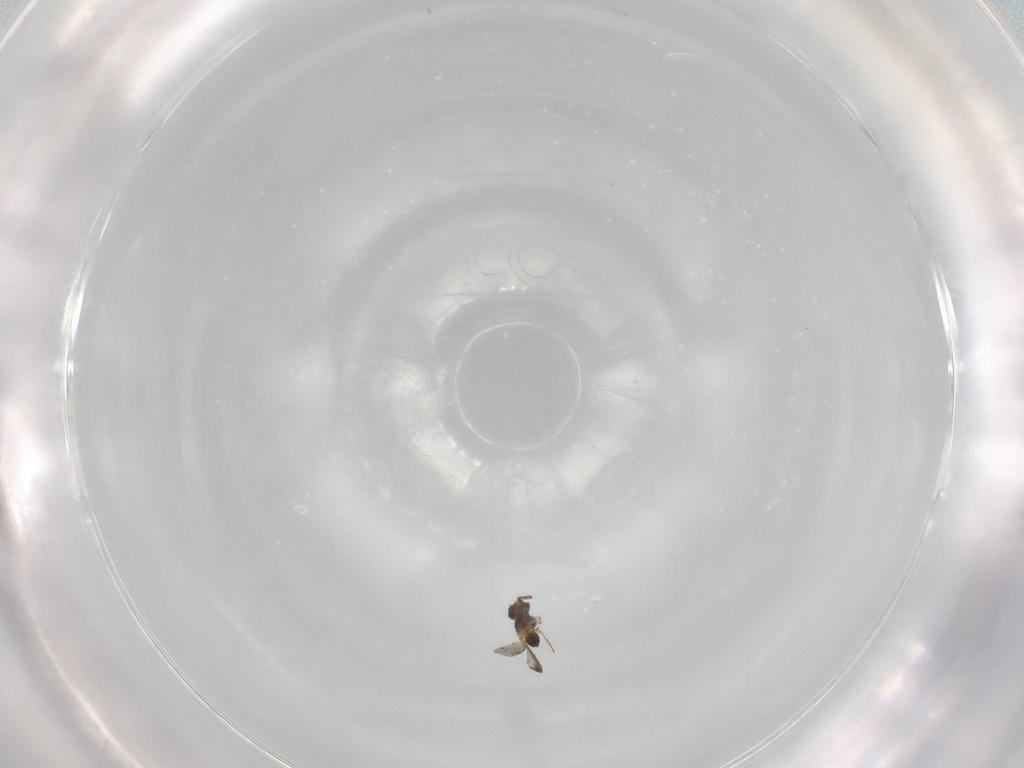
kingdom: Animalia
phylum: Arthropoda
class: Insecta
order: Hymenoptera
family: Platygastridae
